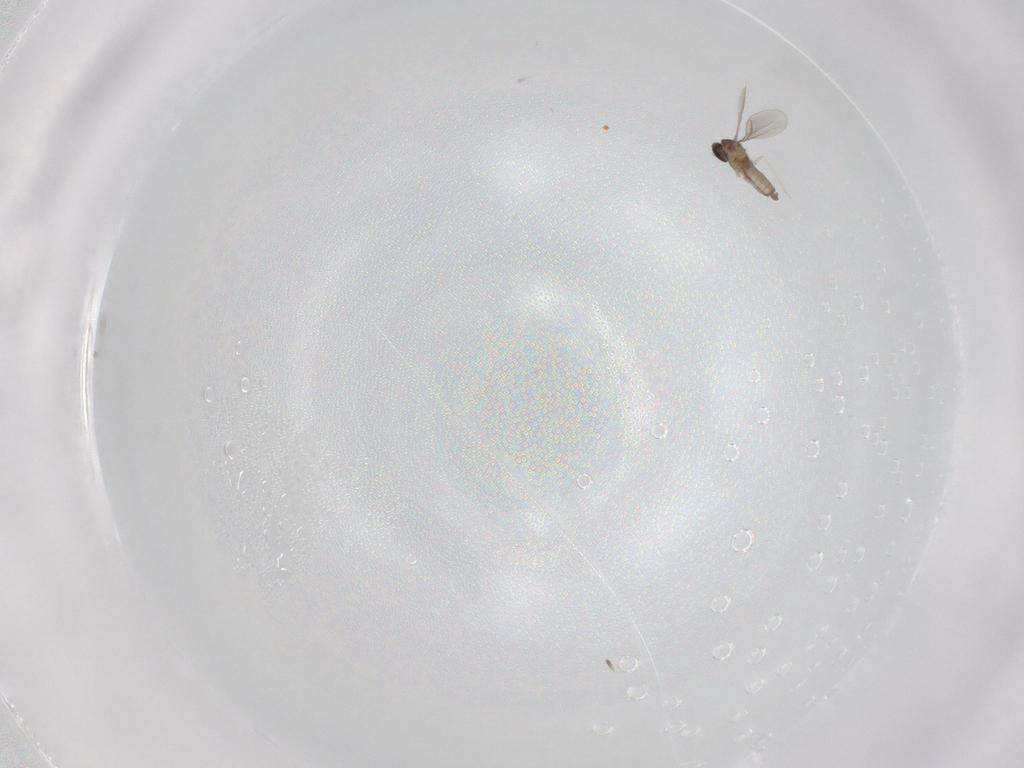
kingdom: Animalia
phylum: Arthropoda
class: Insecta
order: Diptera
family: Cecidomyiidae
